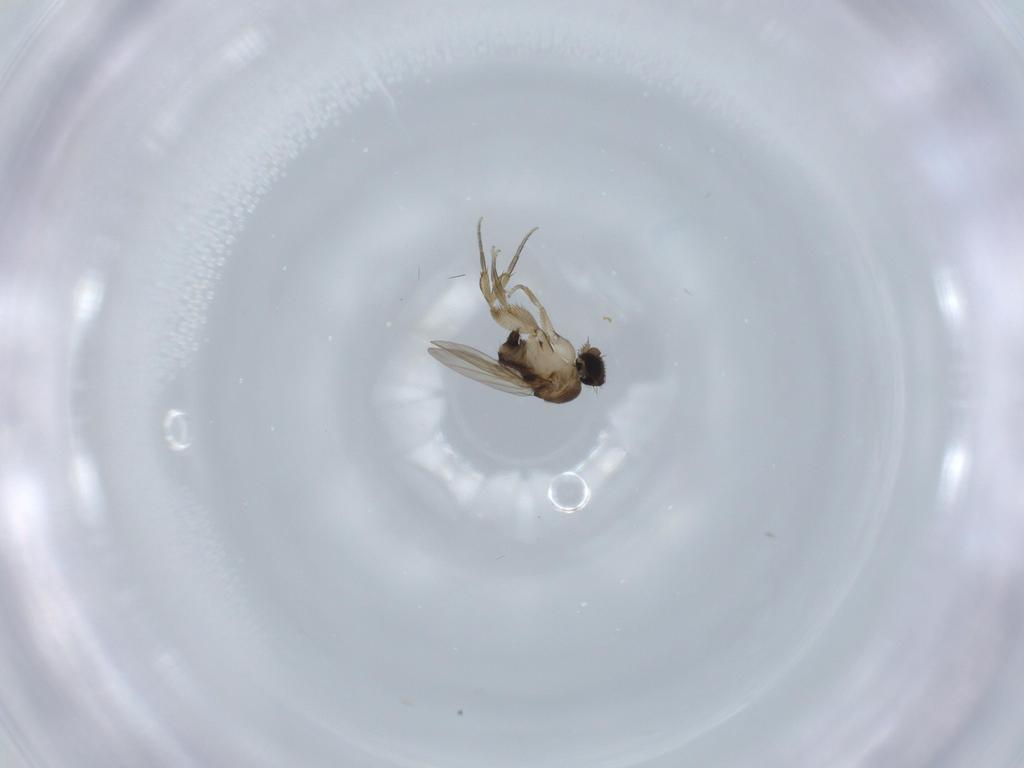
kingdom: Animalia
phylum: Arthropoda
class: Insecta
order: Diptera
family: Phoridae
